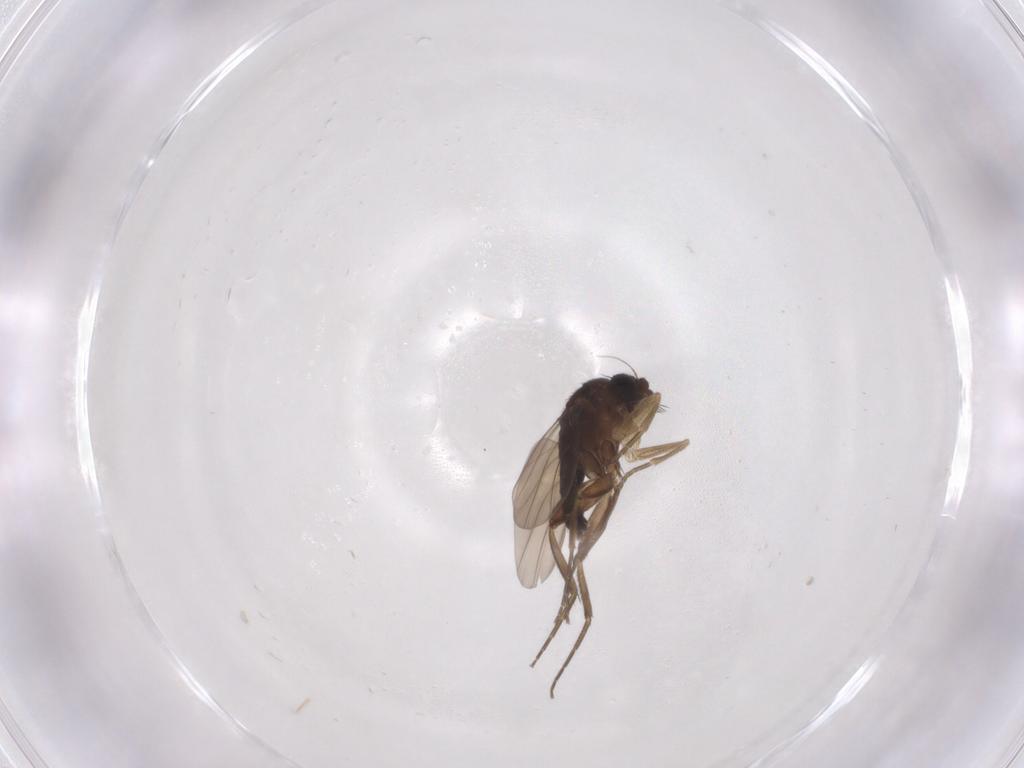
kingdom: Animalia
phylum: Arthropoda
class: Insecta
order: Diptera
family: Phoridae
